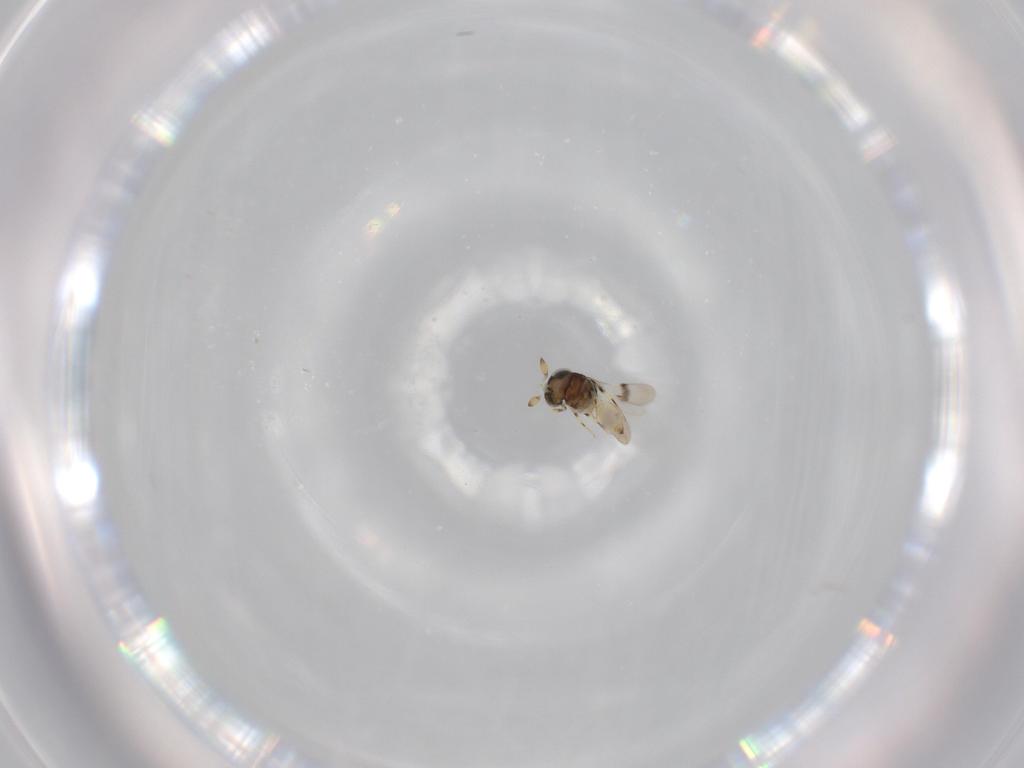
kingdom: Animalia
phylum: Arthropoda
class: Insecta
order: Hymenoptera
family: Scelionidae
